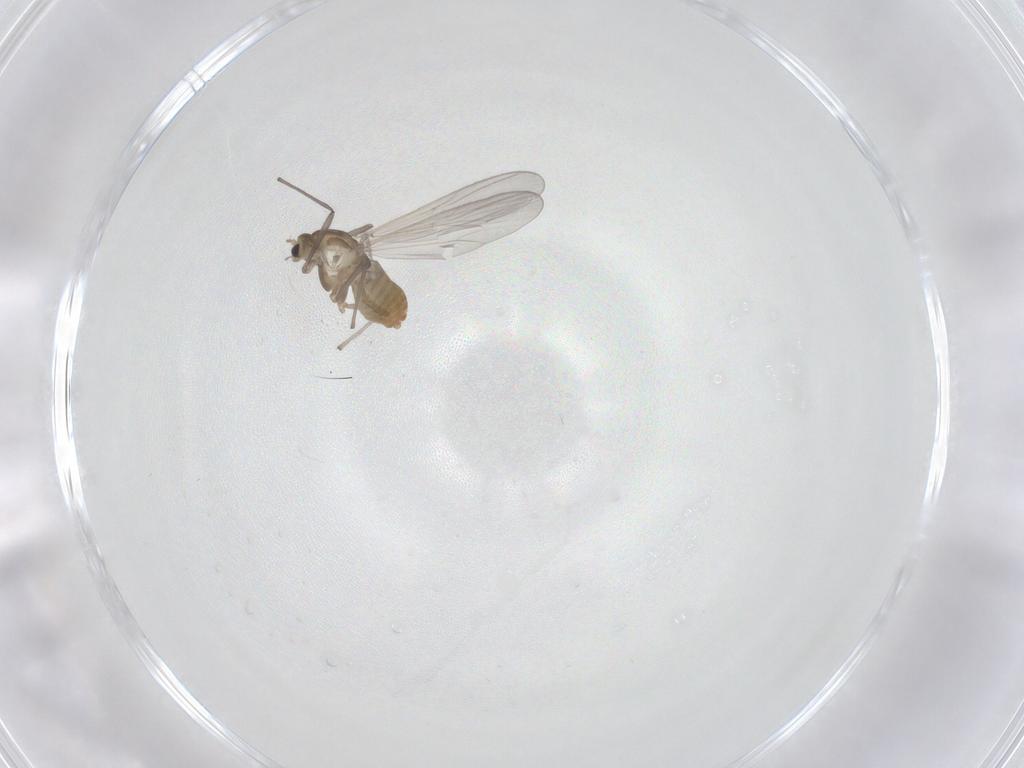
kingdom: Animalia
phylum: Arthropoda
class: Insecta
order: Diptera
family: Chironomidae
